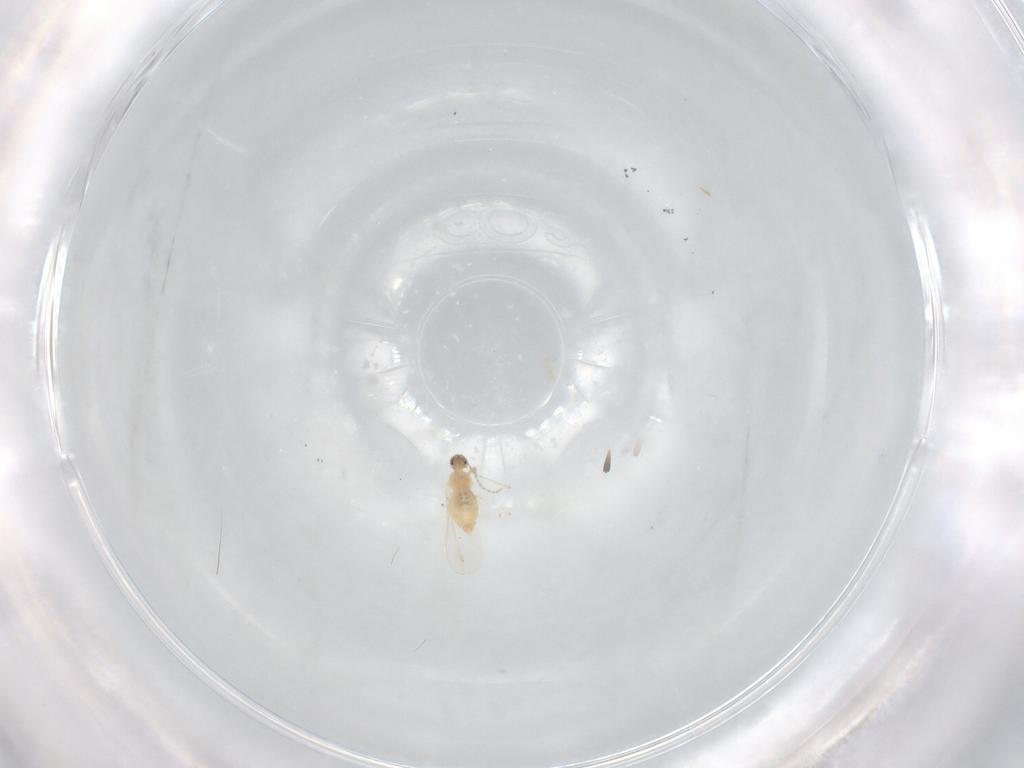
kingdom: Animalia
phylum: Arthropoda
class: Insecta
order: Diptera
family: Cecidomyiidae
